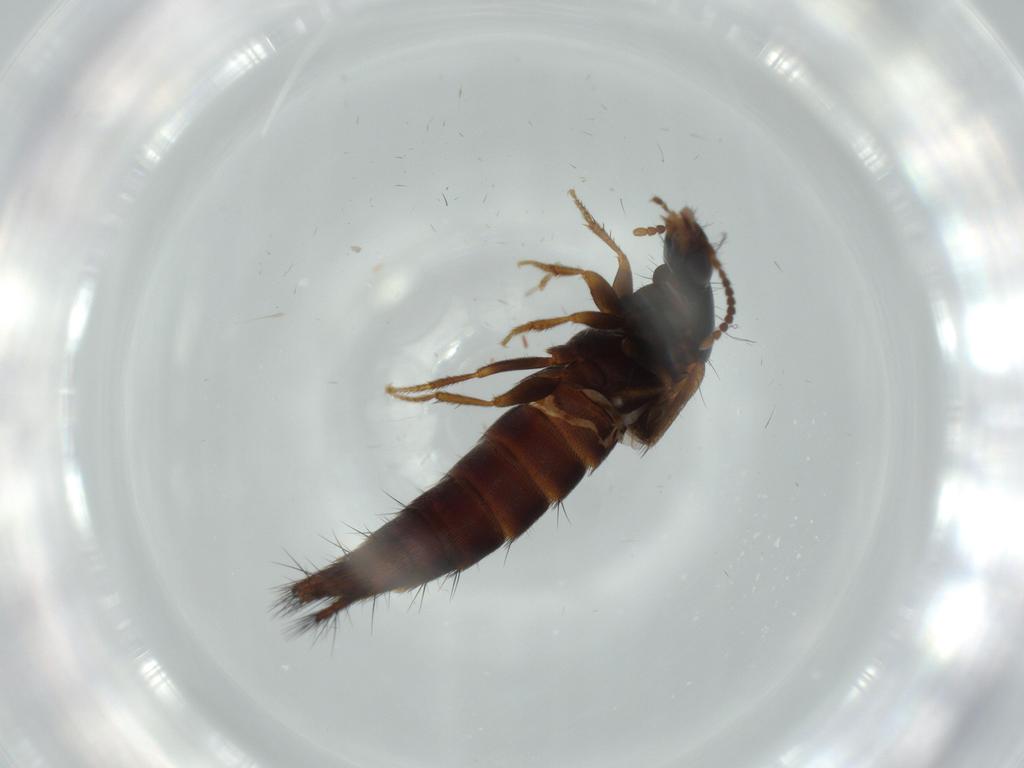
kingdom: Animalia
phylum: Arthropoda
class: Insecta
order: Coleoptera
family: Staphylinidae
